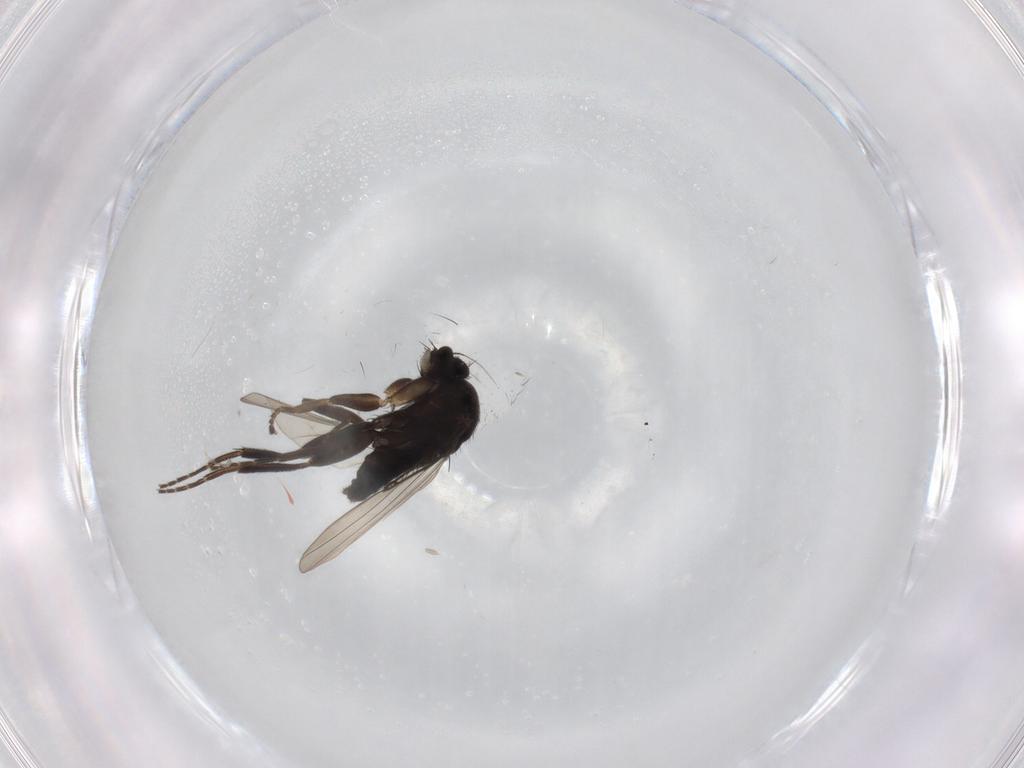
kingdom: Animalia
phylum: Arthropoda
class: Insecta
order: Diptera
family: Phoridae
